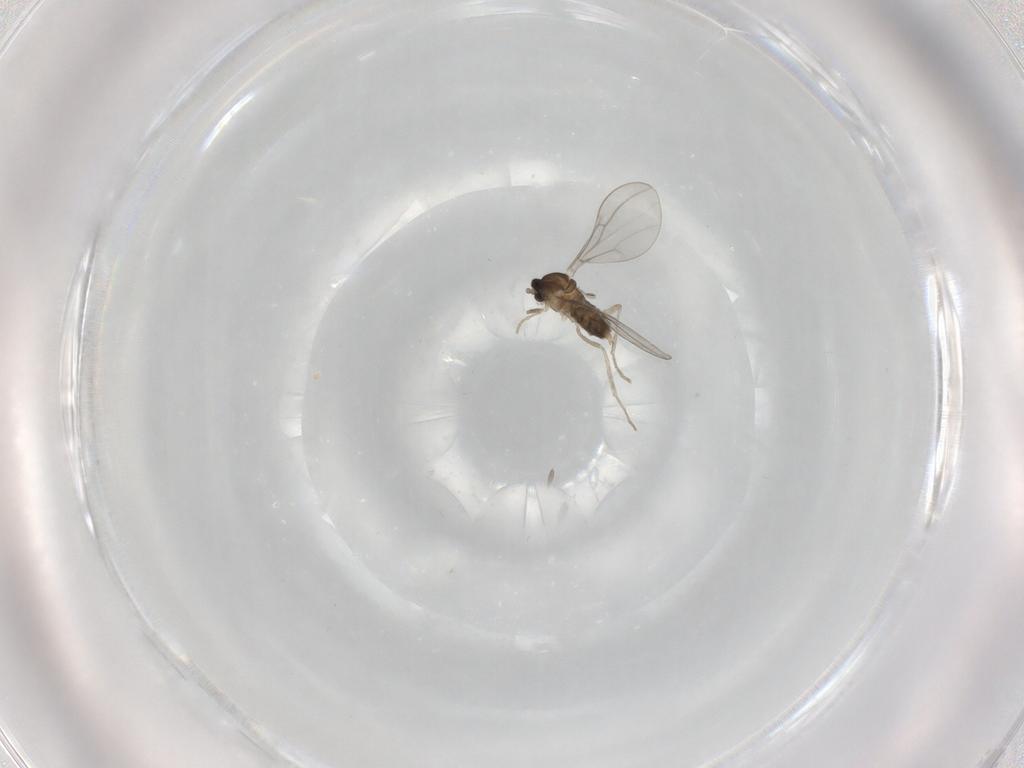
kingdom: Animalia
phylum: Arthropoda
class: Insecta
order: Diptera
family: Cecidomyiidae
